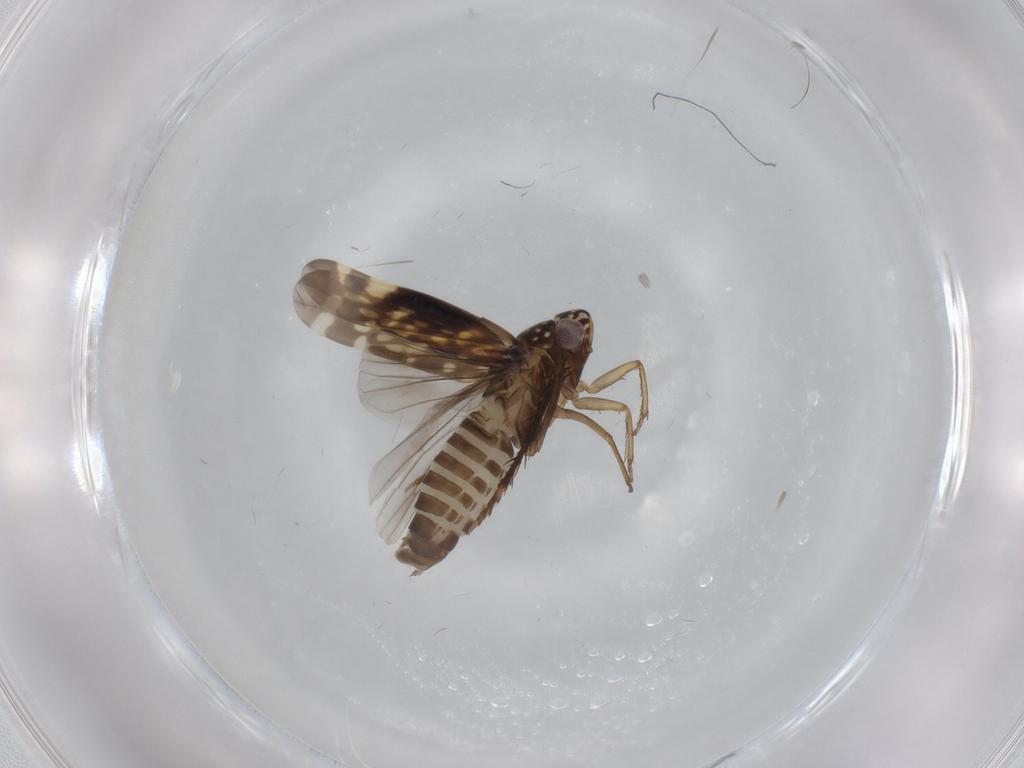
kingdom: Animalia
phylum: Arthropoda
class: Insecta
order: Hemiptera
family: Cicadellidae
